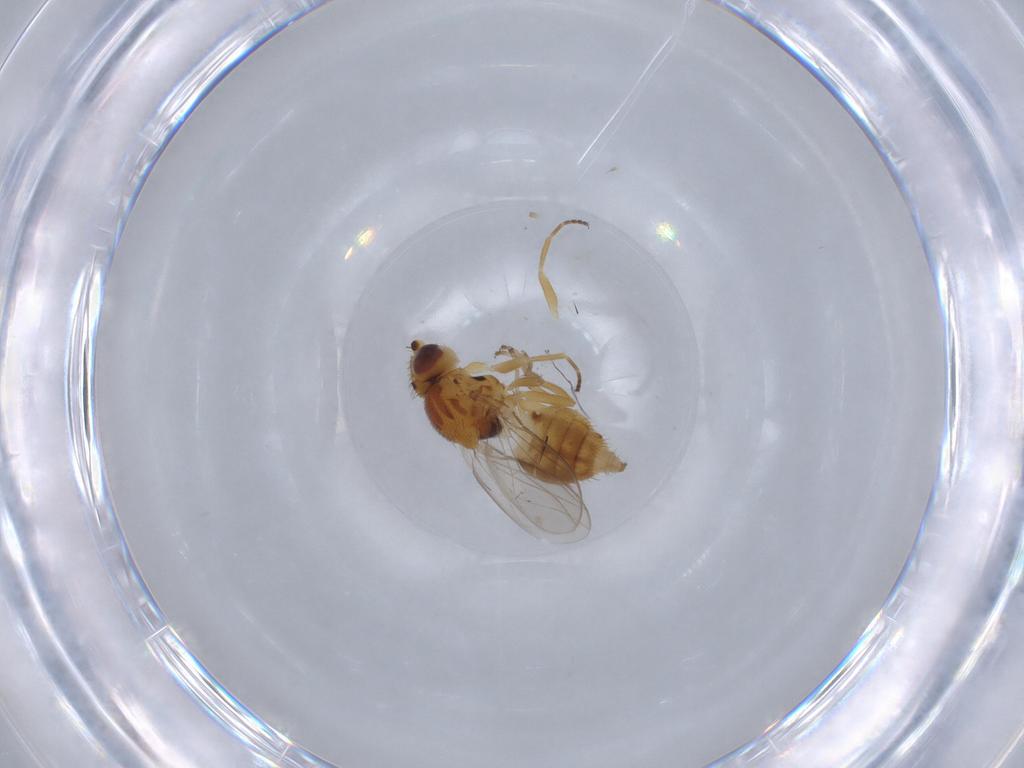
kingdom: Animalia
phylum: Arthropoda
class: Insecta
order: Diptera
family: Chloropidae
